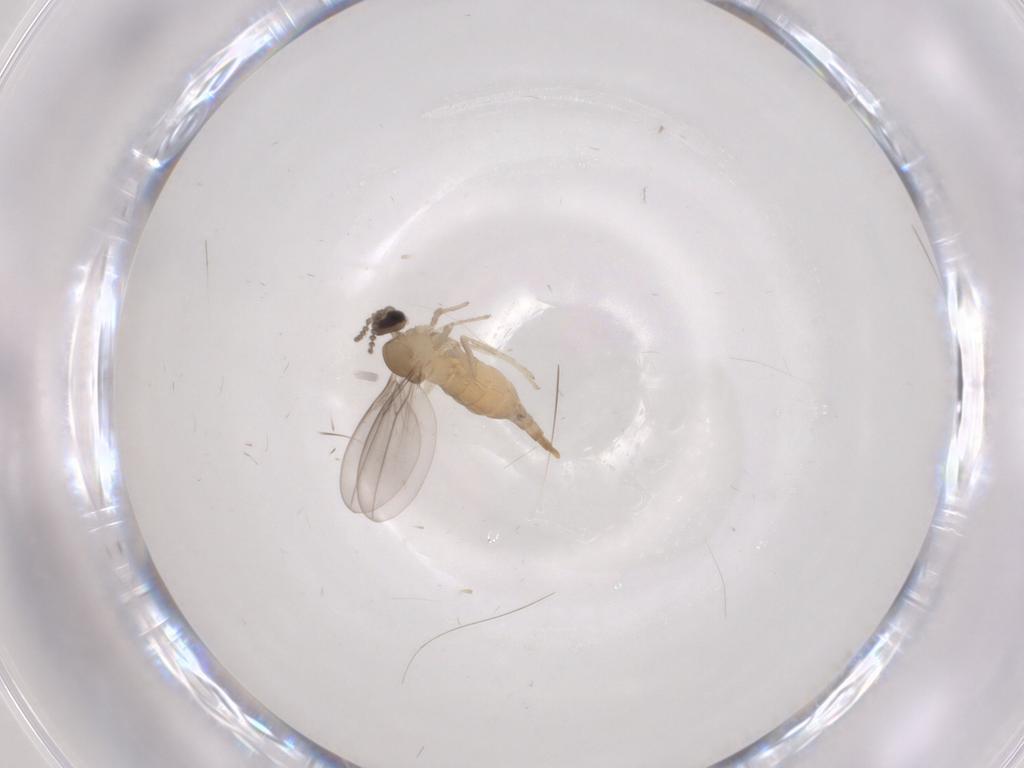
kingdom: Animalia
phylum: Arthropoda
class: Insecta
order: Diptera
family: Cecidomyiidae
